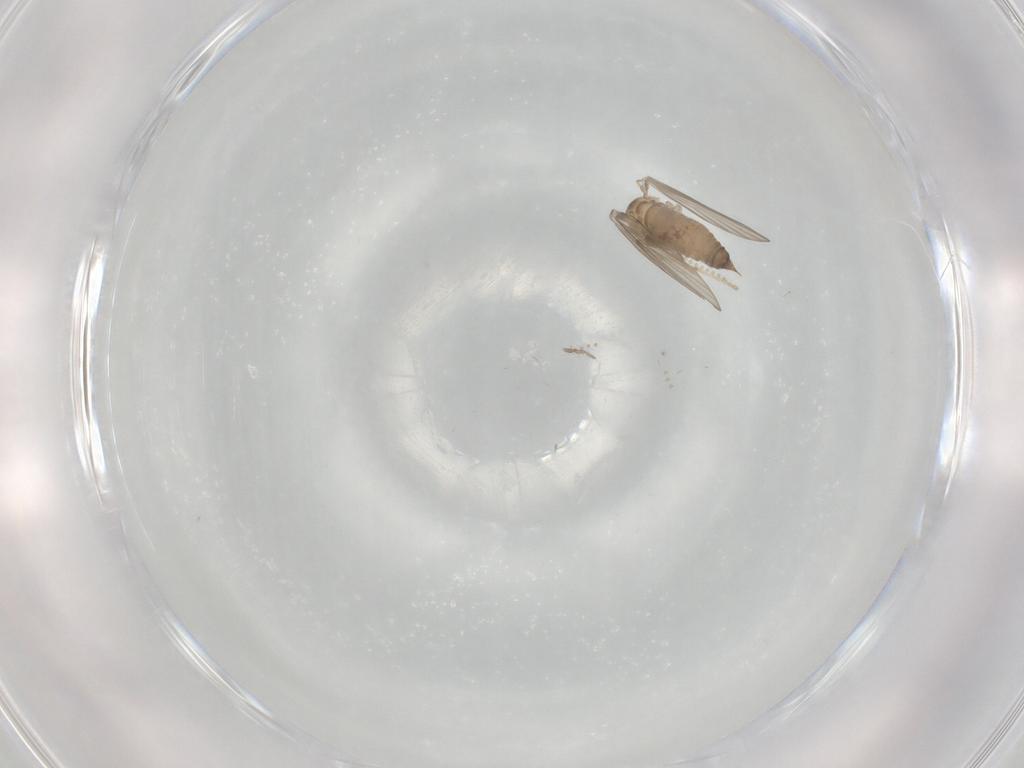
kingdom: Animalia
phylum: Arthropoda
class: Insecta
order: Diptera
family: Psychodidae
